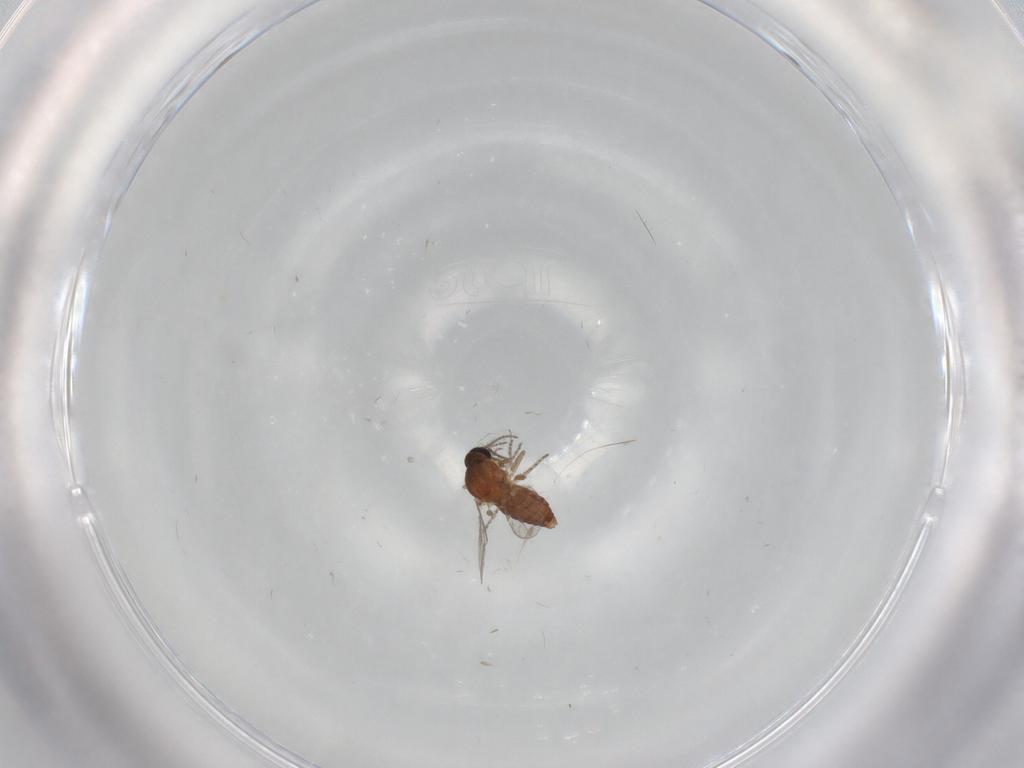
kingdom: Animalia
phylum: Arthropoda
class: Insecta
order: Diptera
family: Ceratopogonidae
